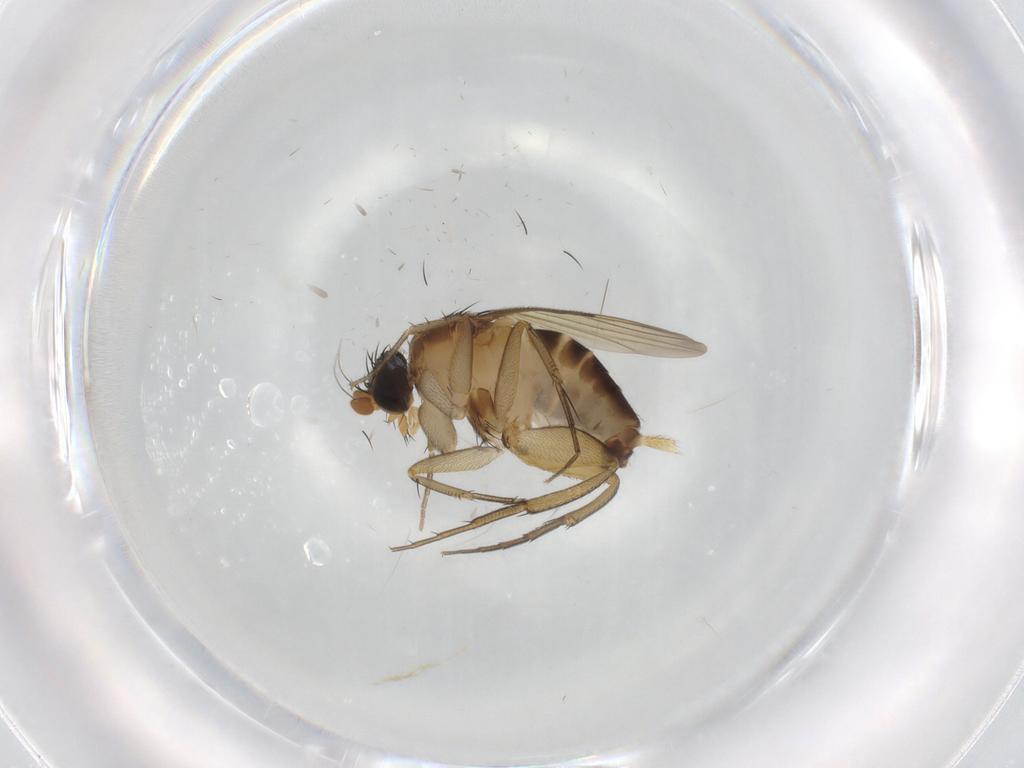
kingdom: Animalia
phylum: Arthropoda
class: Insecta
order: Diptera
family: Phoridae
